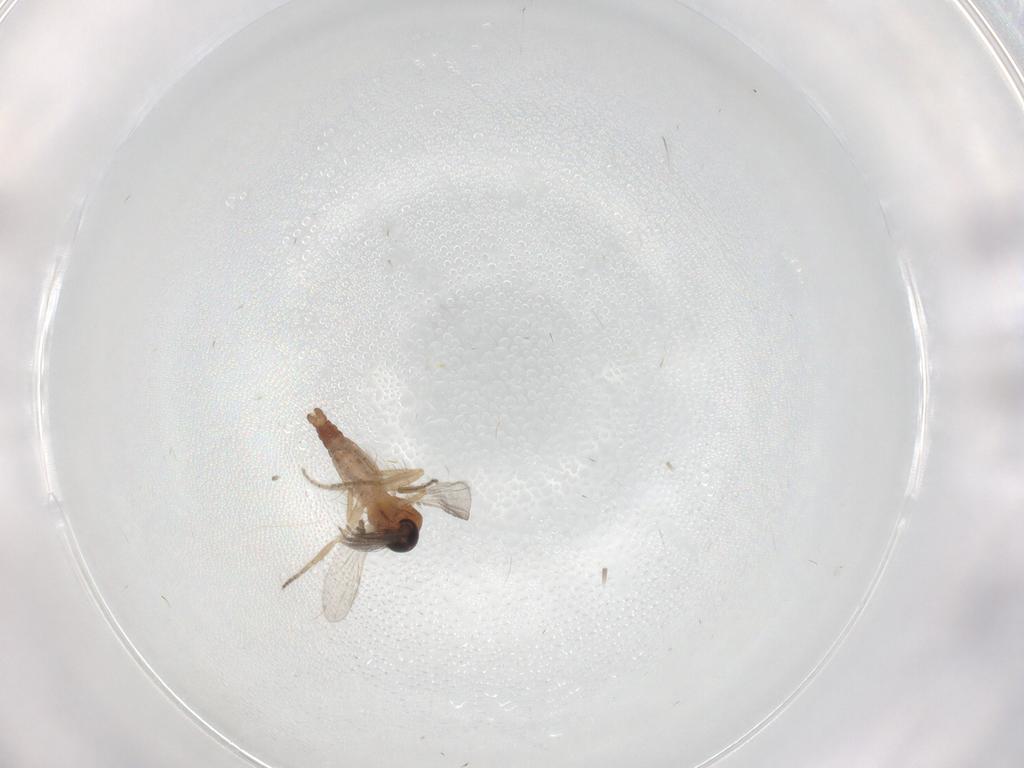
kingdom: Animalia
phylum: Arthropoda
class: Insecta
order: Diptera
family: Ceratopogonidae
